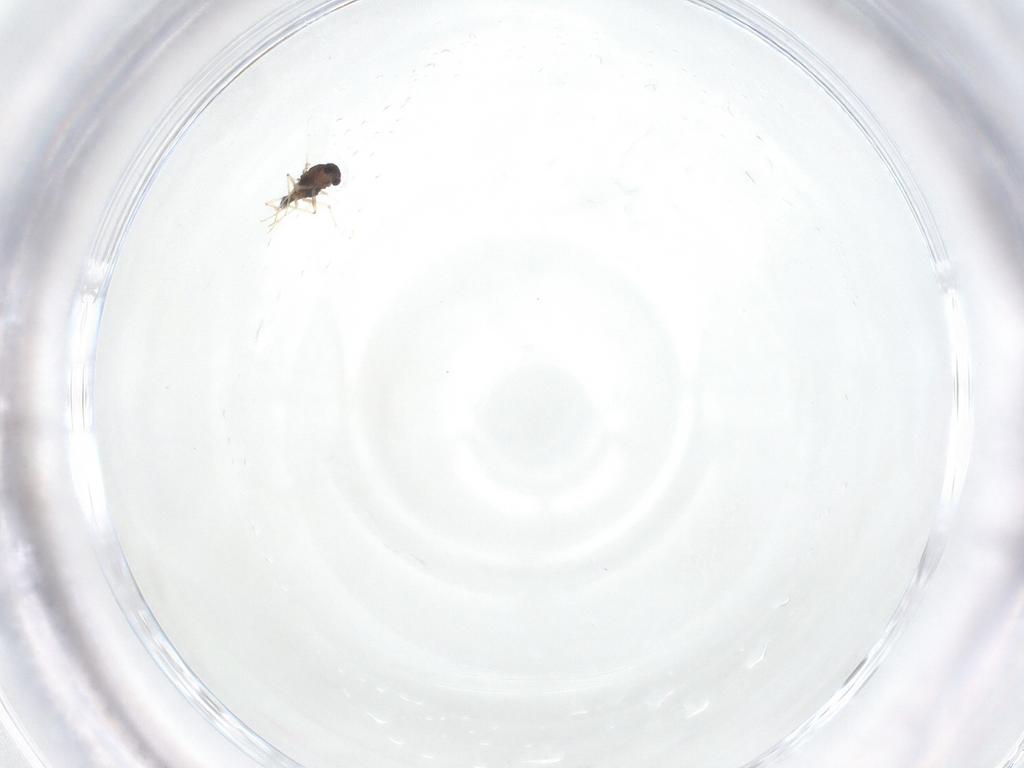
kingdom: Animalia
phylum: Arthropoda
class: Insecta
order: Diptera
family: Chironomidae
